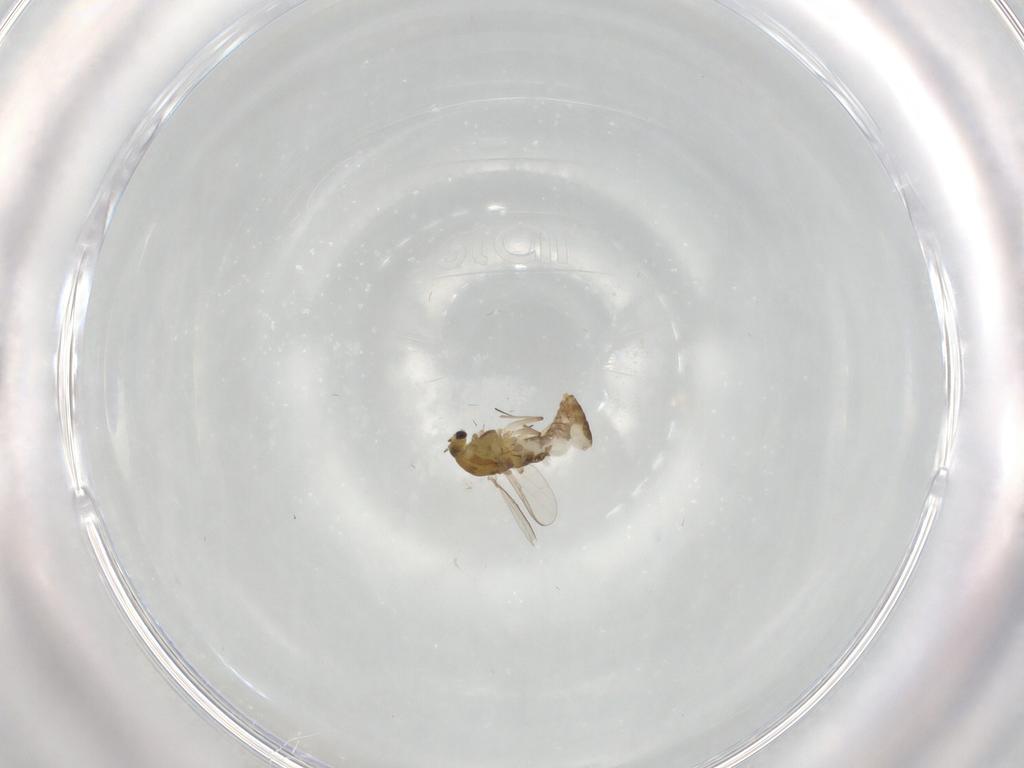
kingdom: Animalia
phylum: Arthropoda
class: Insecta
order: Diptera
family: Chironomidae
